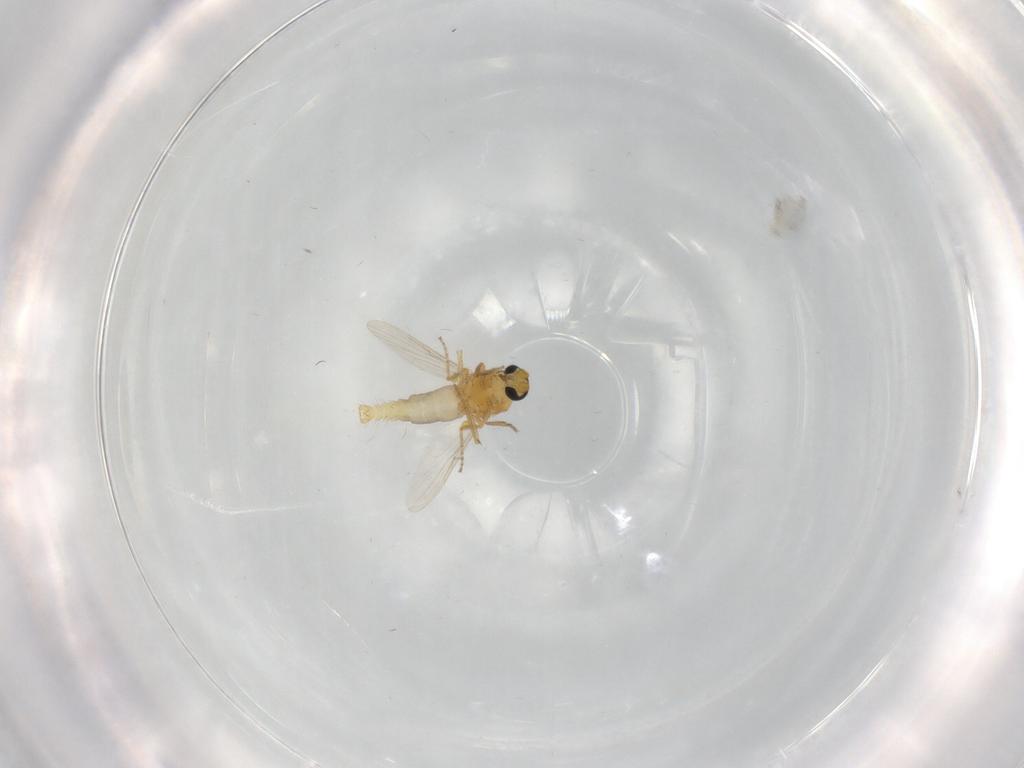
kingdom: Animalia
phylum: Arthropoda
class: Insecta
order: Diptera
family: Ceratopogonidae
